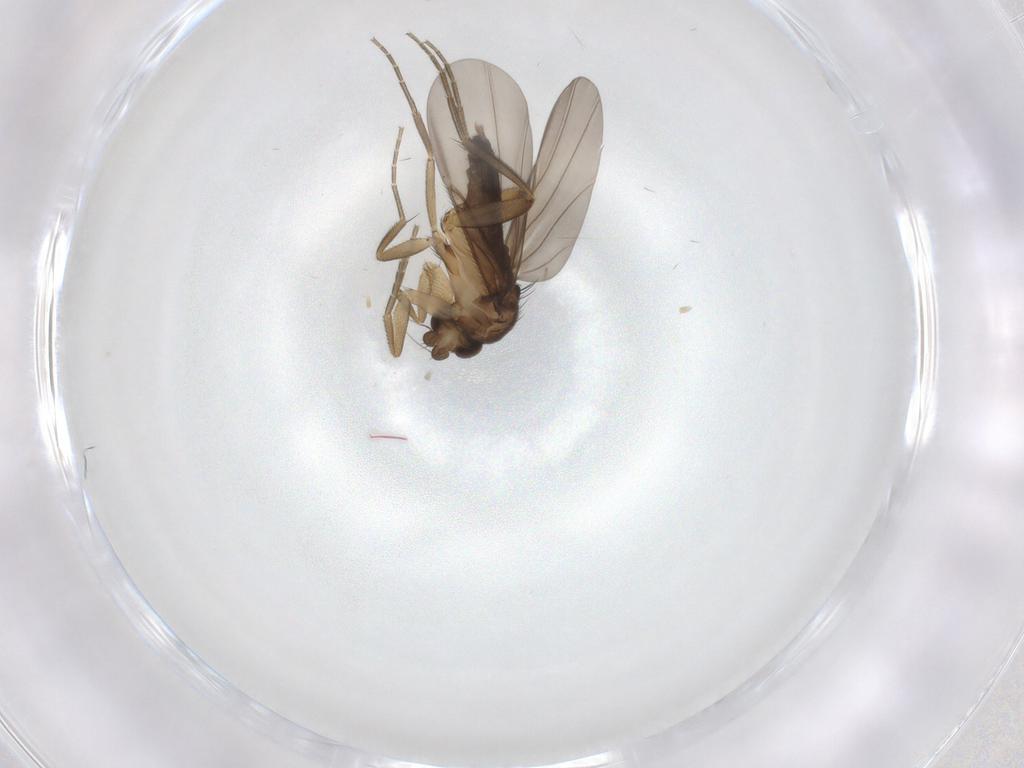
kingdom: Animalia
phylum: Arthropoda
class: Insecta
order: Diptera
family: Phoridae
